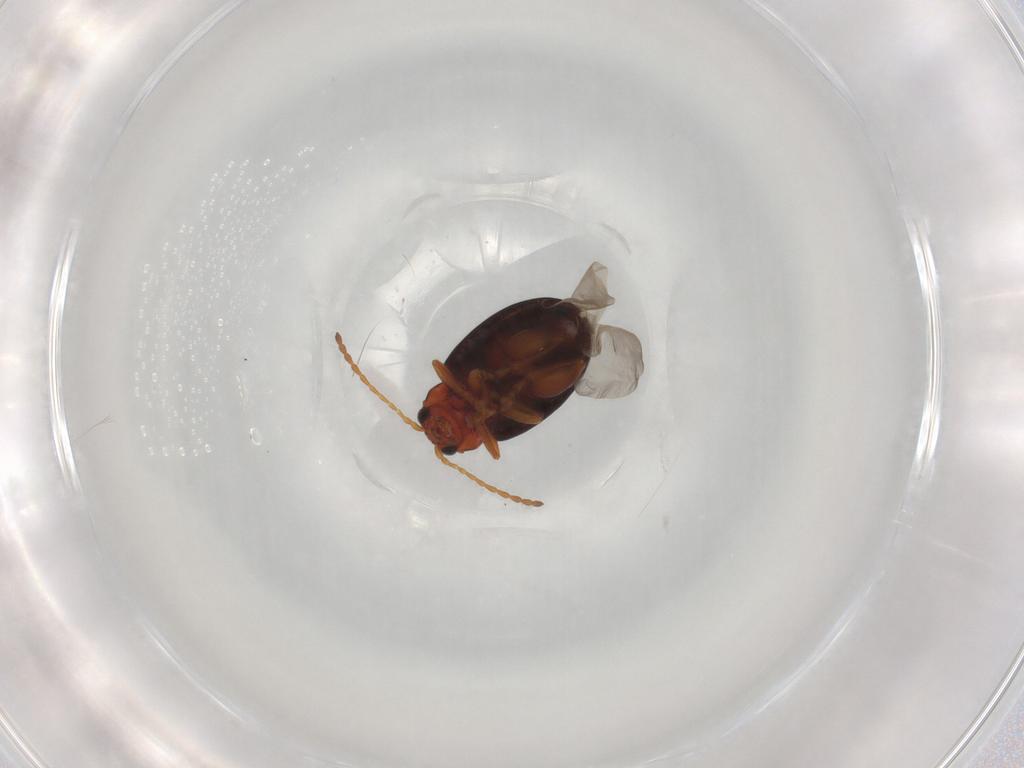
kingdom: Animalia
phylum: Arthropoda
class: Insecta
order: Coleoptera
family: Chrysomelidae
